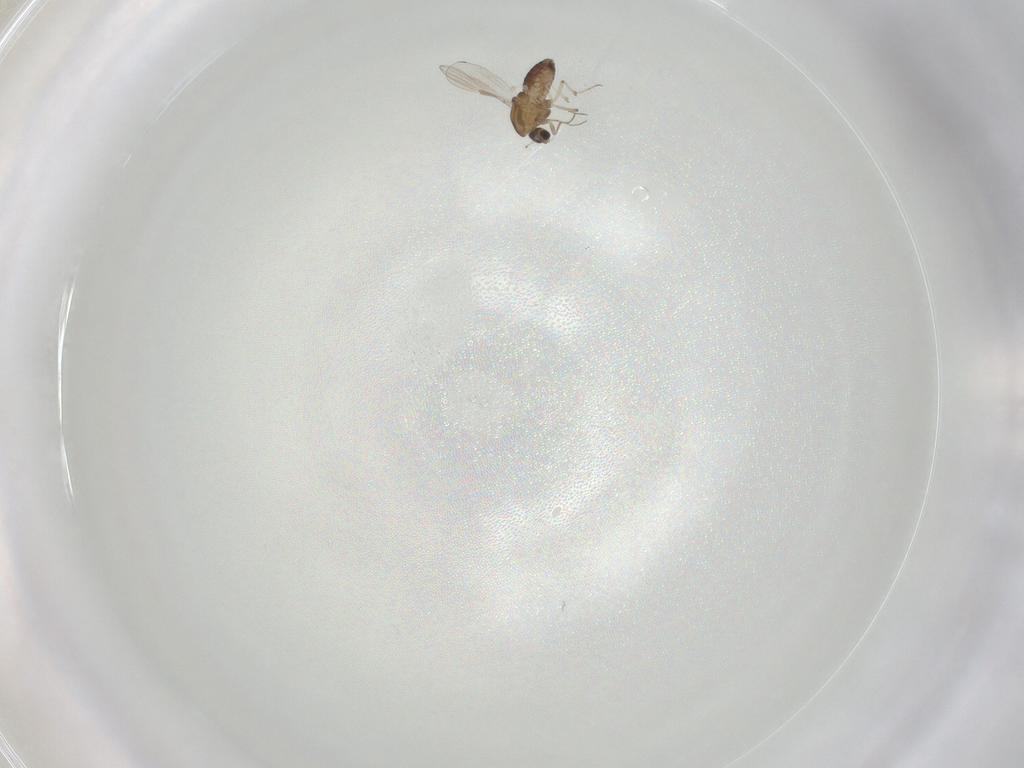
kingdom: Animalia
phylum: Arthropoda
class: Insecta
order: Diptera
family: Chironomidae
